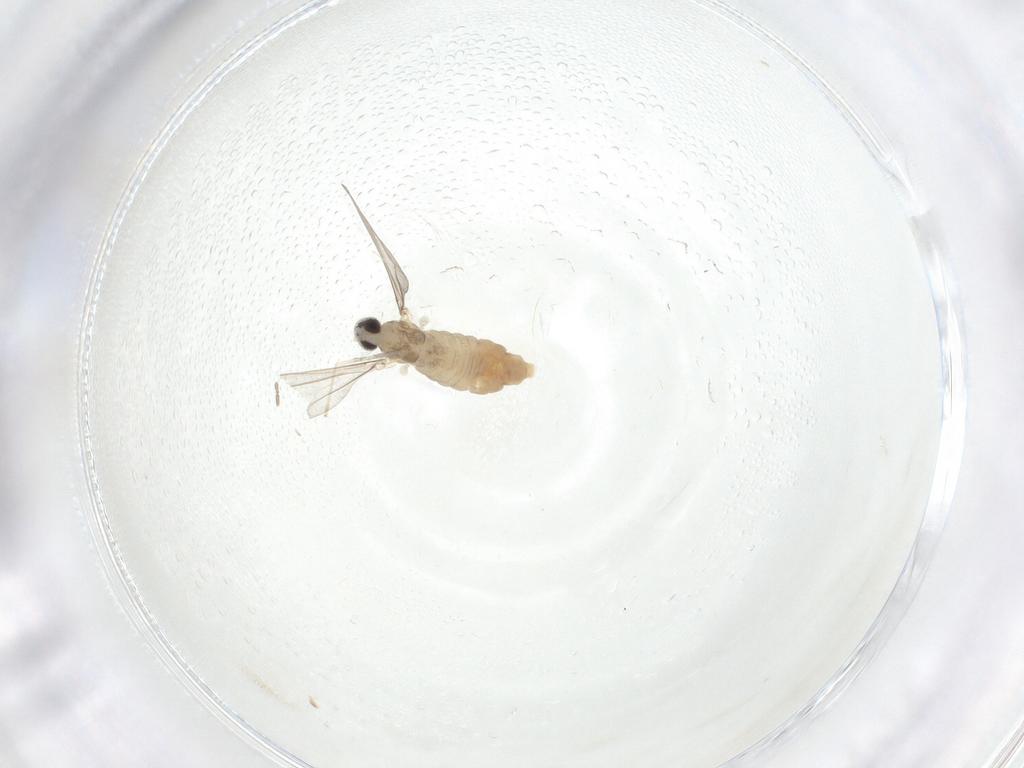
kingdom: Animalia
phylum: Arthropoda
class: Insecta
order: Diptera
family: Cecidomyiidae
